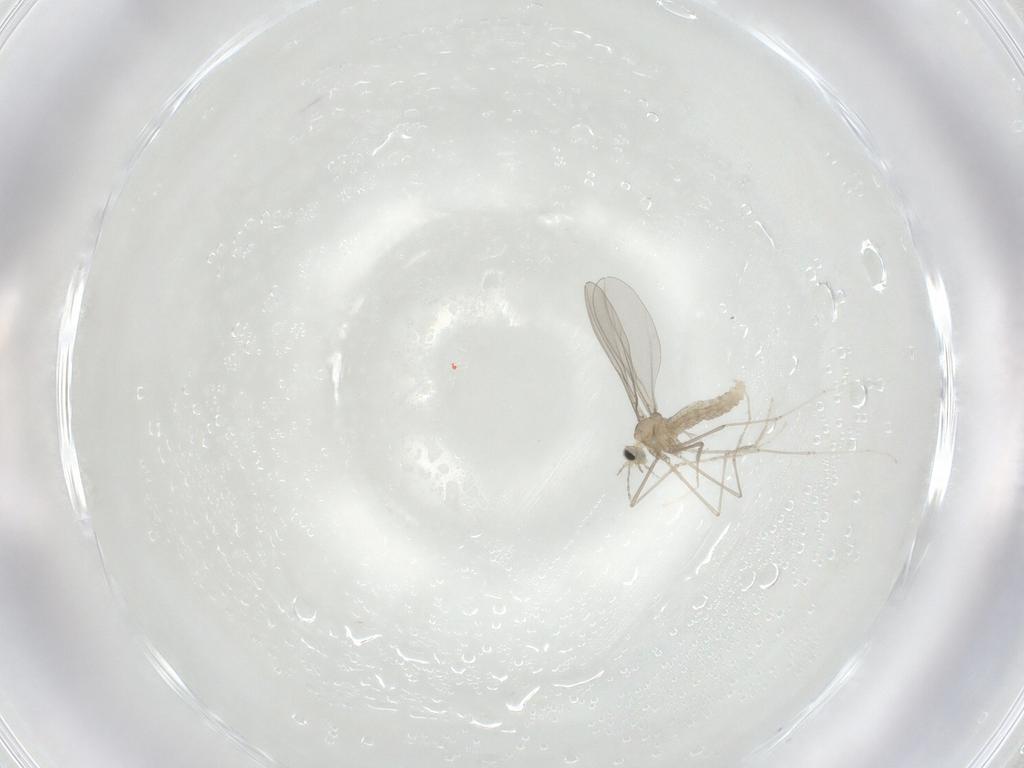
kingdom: Animalia
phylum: Arthropoda
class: Insecta
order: Diptera
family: Cecidomyiidae
